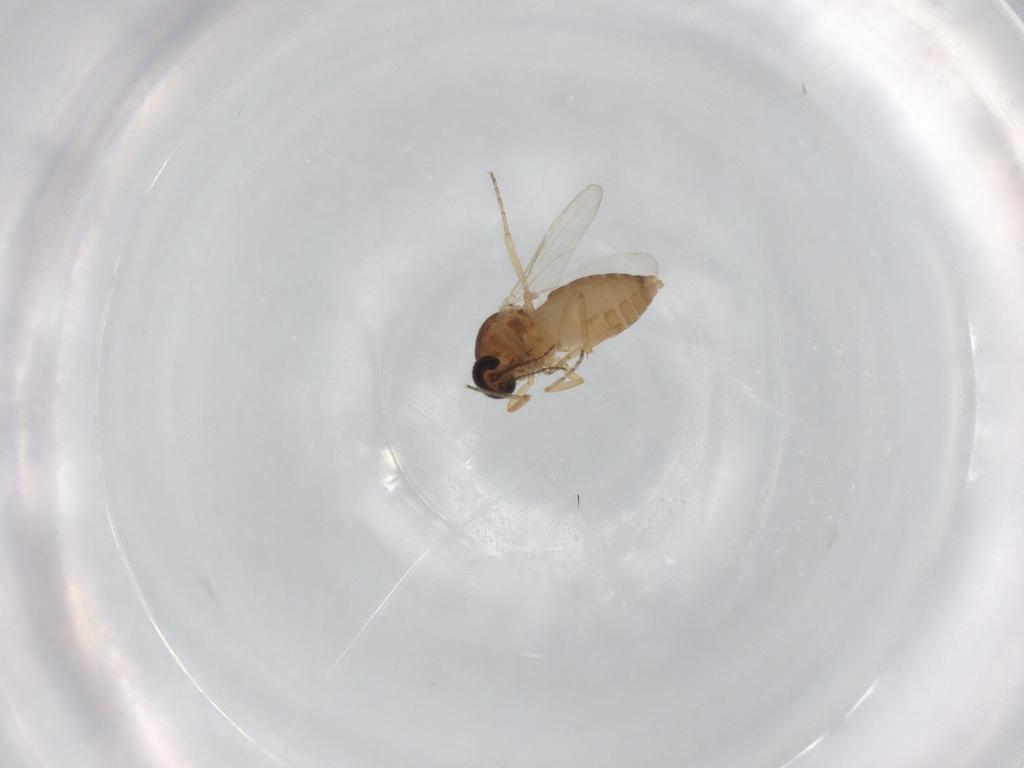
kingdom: Animalia
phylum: Arthropoda
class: Insecta
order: Diptera
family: Ceratopogonidae
